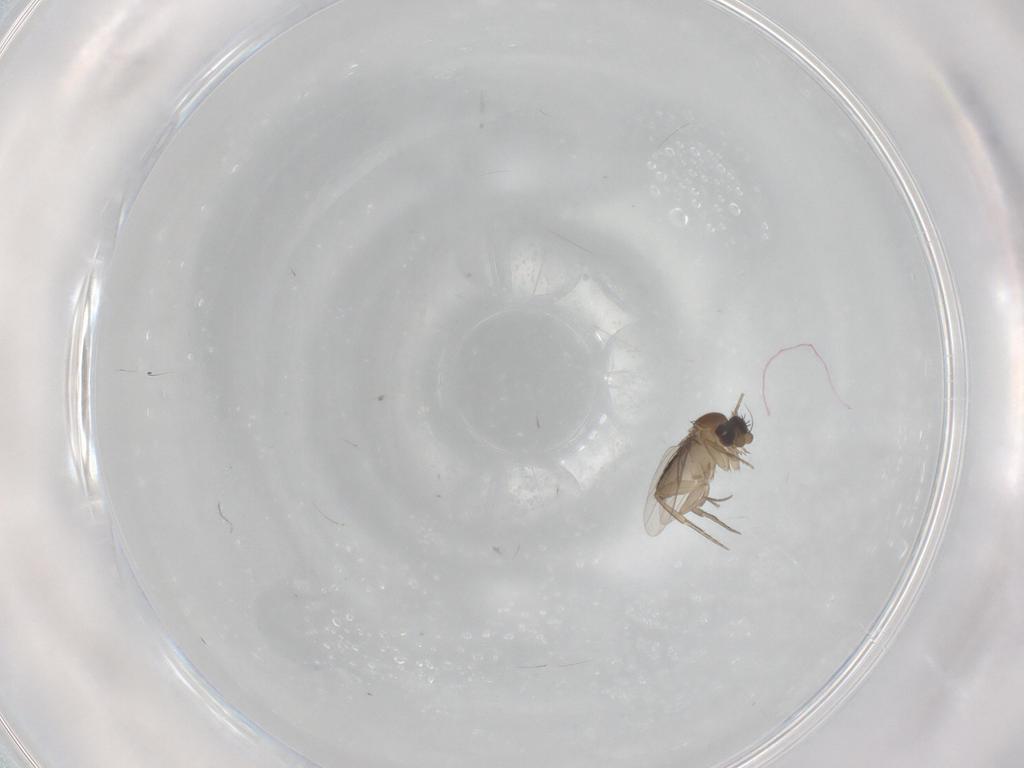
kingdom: Animalia
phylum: Arthropoda
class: Insecta
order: Diptera
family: Phoridae
